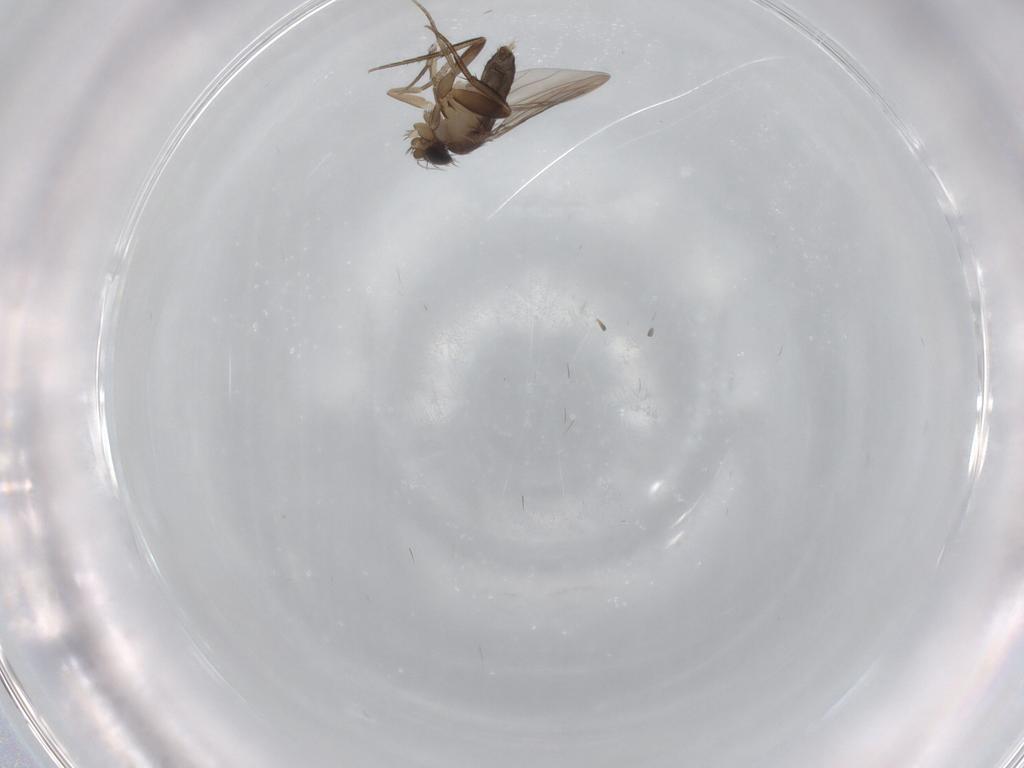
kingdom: Animalia
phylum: Arthropoda
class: Insecta
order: Diptera
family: Phoridae
